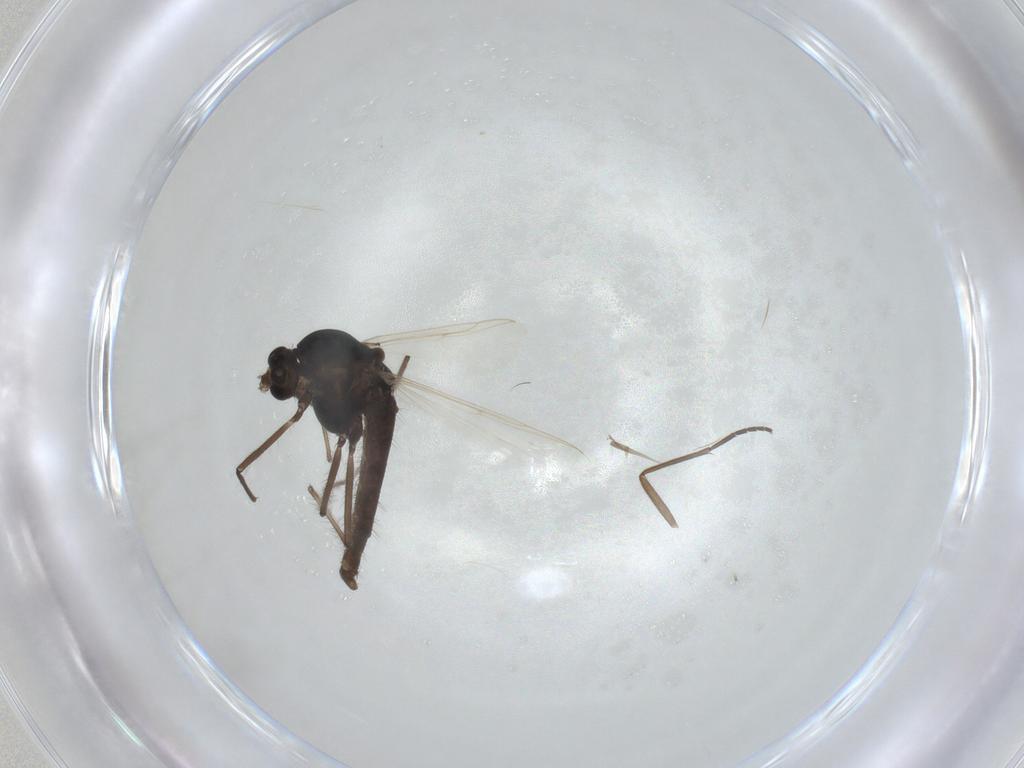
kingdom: Animalia
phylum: Arthropoda
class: Insecta
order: Diptera
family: Sciaridae
